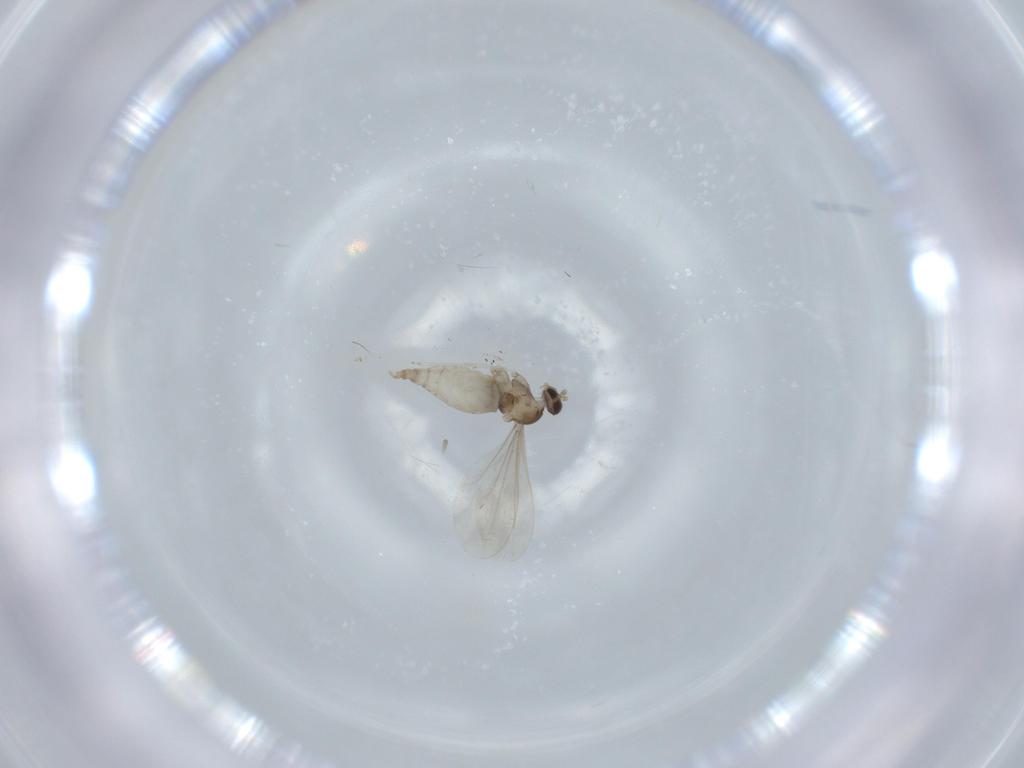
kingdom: Animalia
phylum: Arthropoda
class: Insecta
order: Diptera
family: Cecidomyiidae
